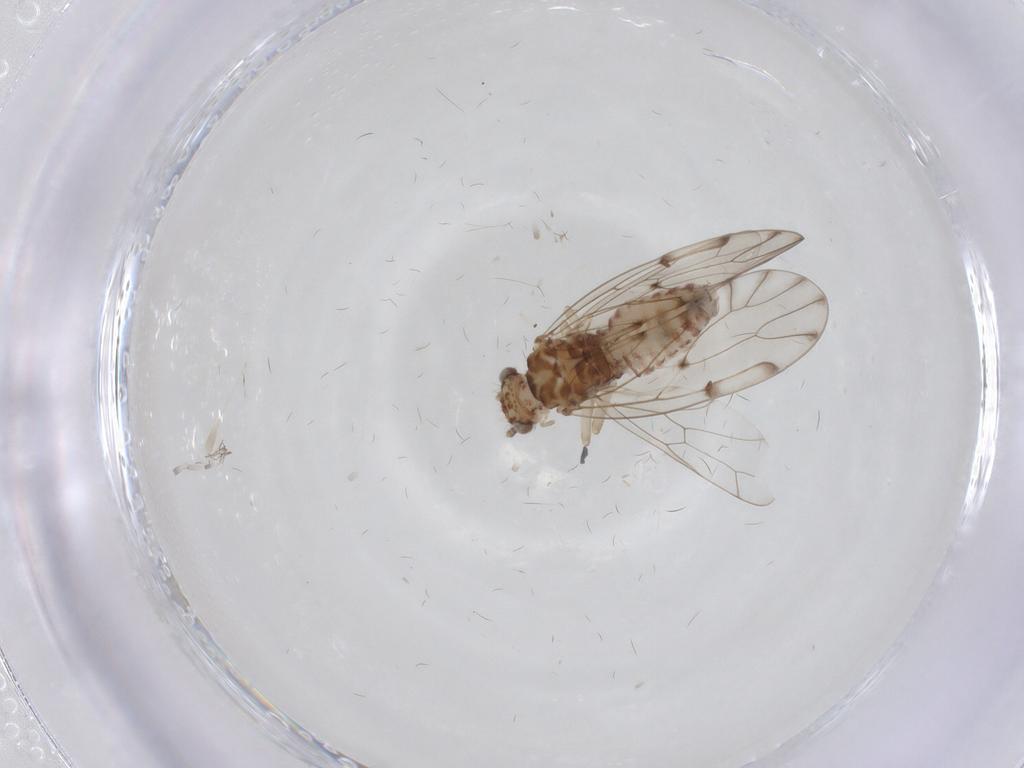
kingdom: Animalia
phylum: Arthropoda
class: Insecta
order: Psocodea
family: Ectopsocidae
